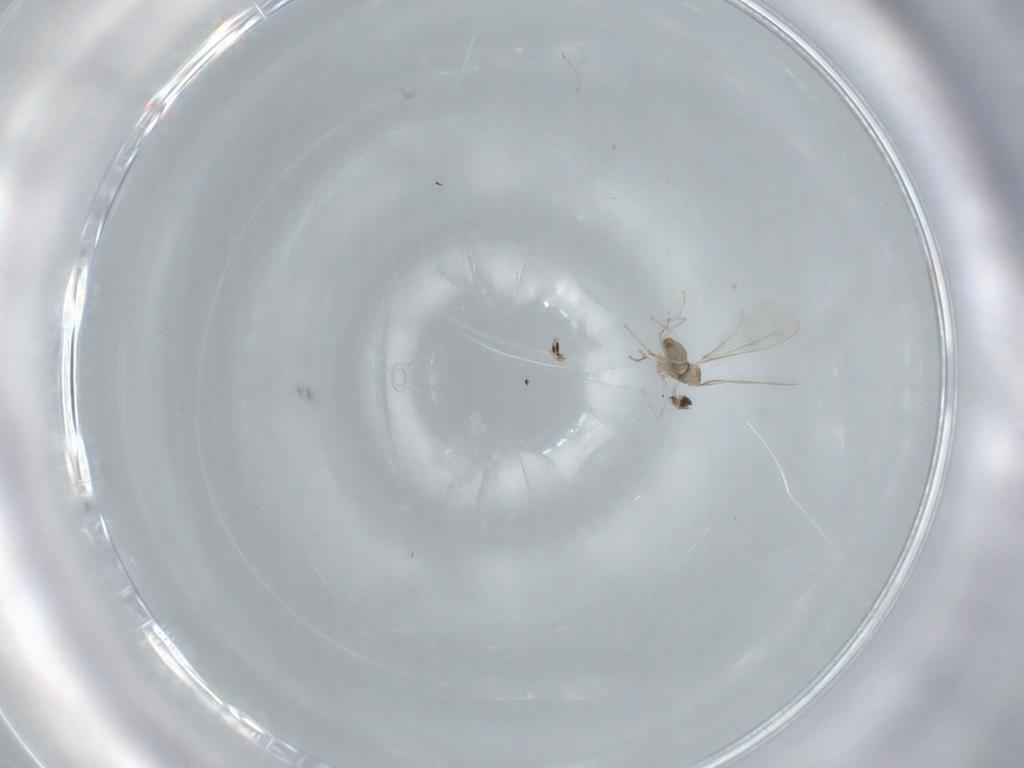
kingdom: Animalia
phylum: Arthropoda
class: Insecta
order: Diptera
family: Cecidomyiidae
